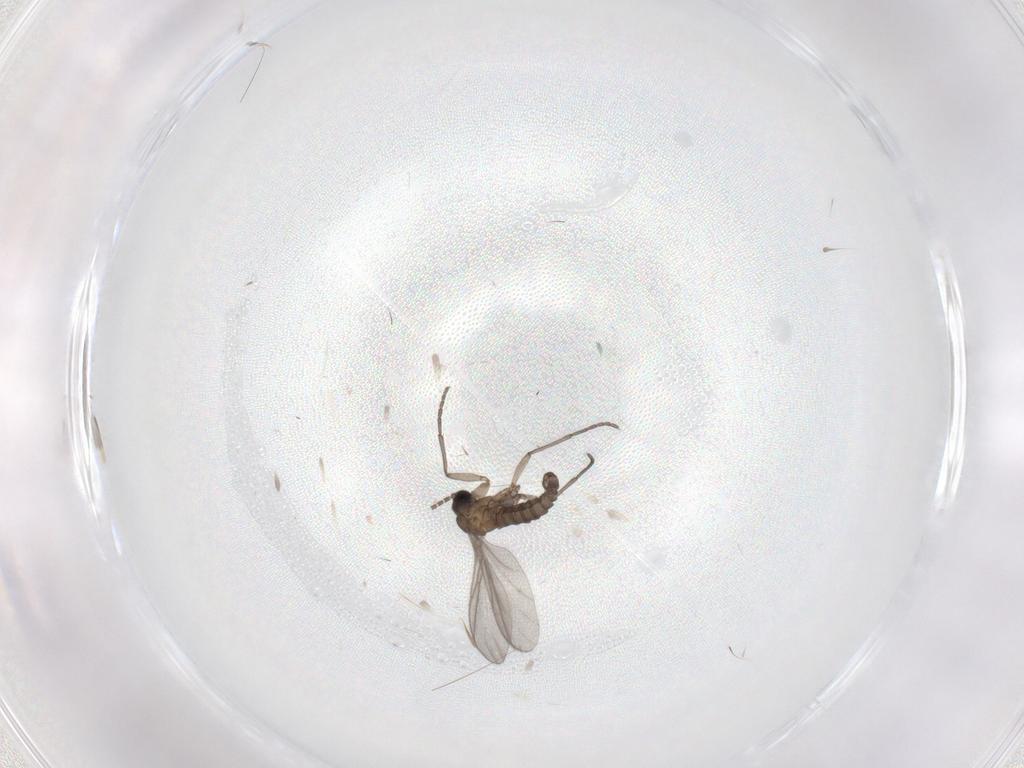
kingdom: Animalia
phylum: Arthropoda
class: Insecta
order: Diptera
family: Sciaridae
